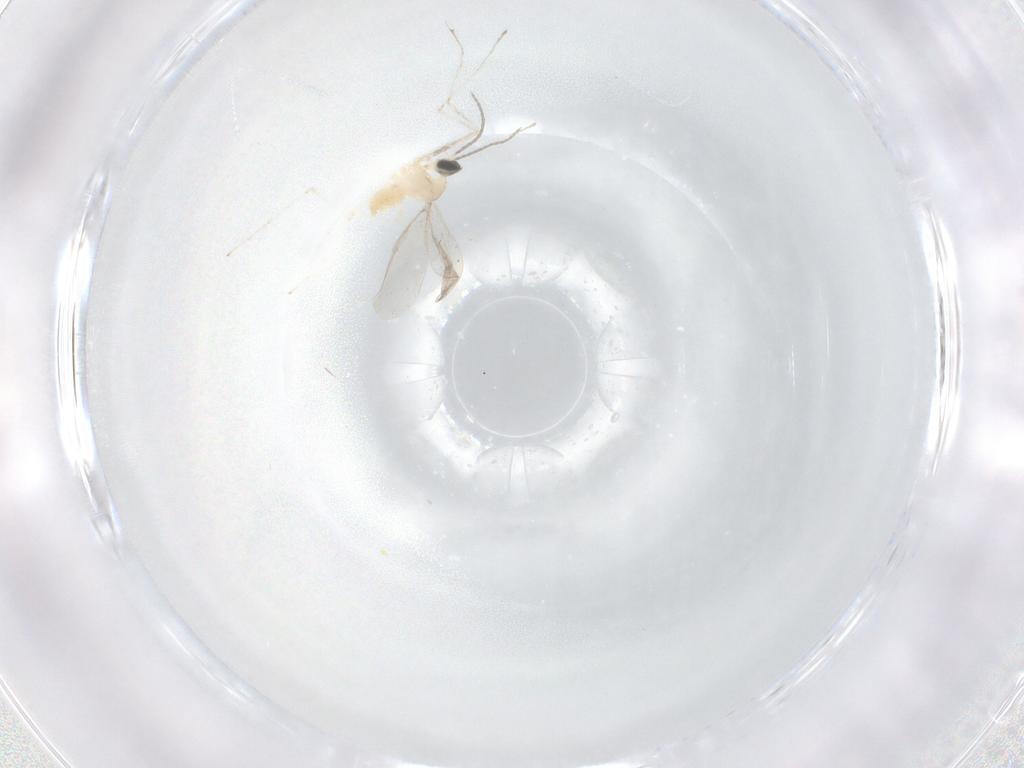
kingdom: Animalia
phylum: Arthropoda
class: Insecta
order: Diptera
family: Cecidomyiidae
